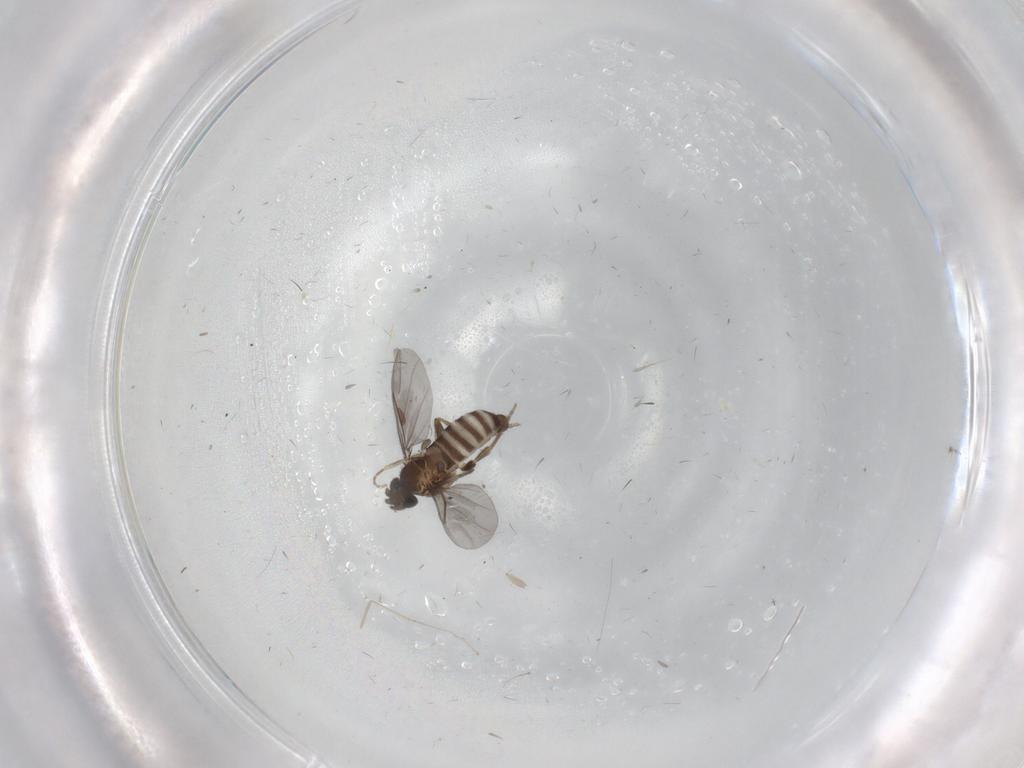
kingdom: Animalia
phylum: Arthropoda
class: Insecta
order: Diptera
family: Cecidomyiidae
